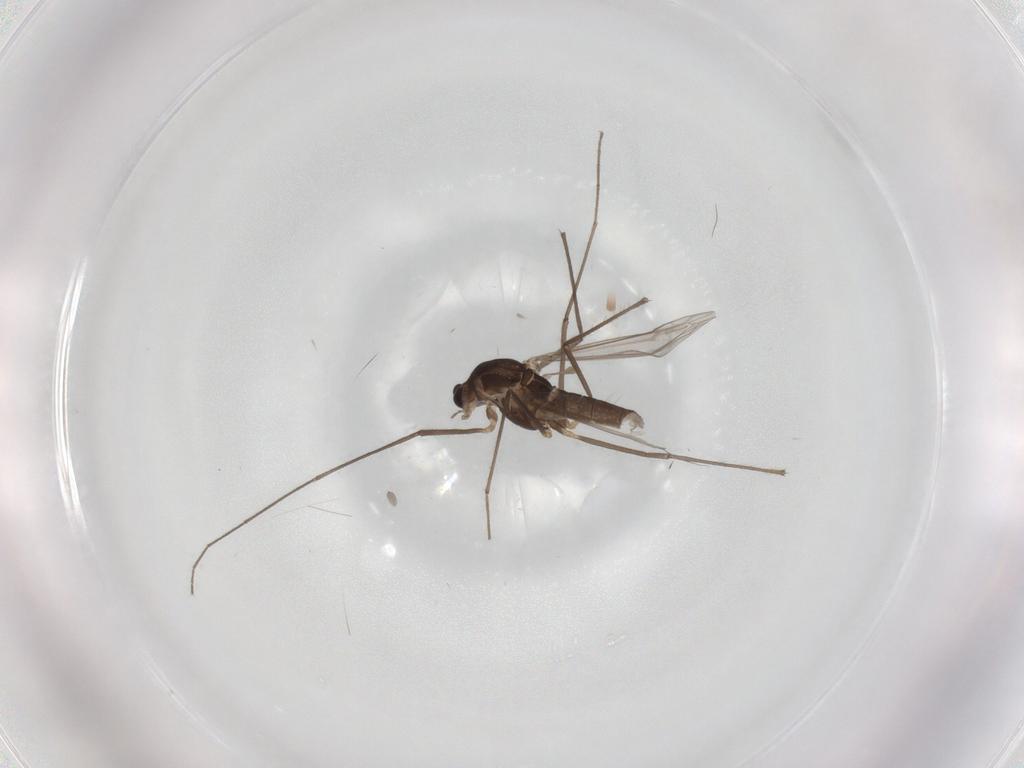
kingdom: Animalia
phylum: Arthropoda
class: Insecta
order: Diptera
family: Chironomidae
